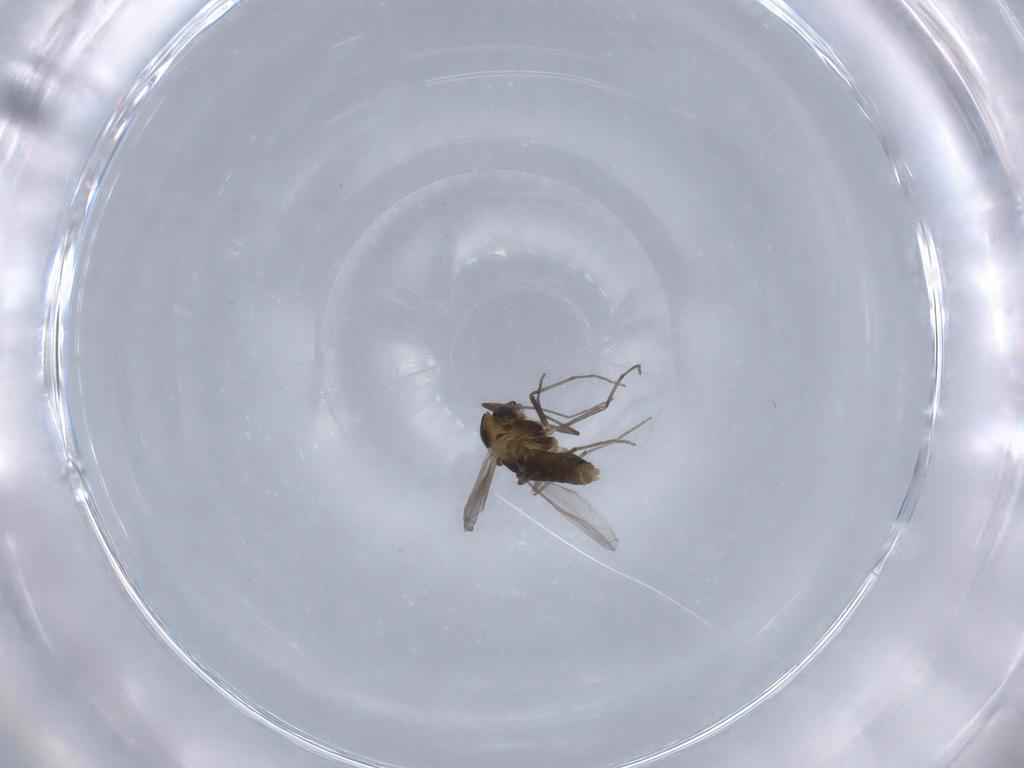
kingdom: Animalia
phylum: Arthropoda
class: Insecta
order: Diptera
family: Chironomidae
